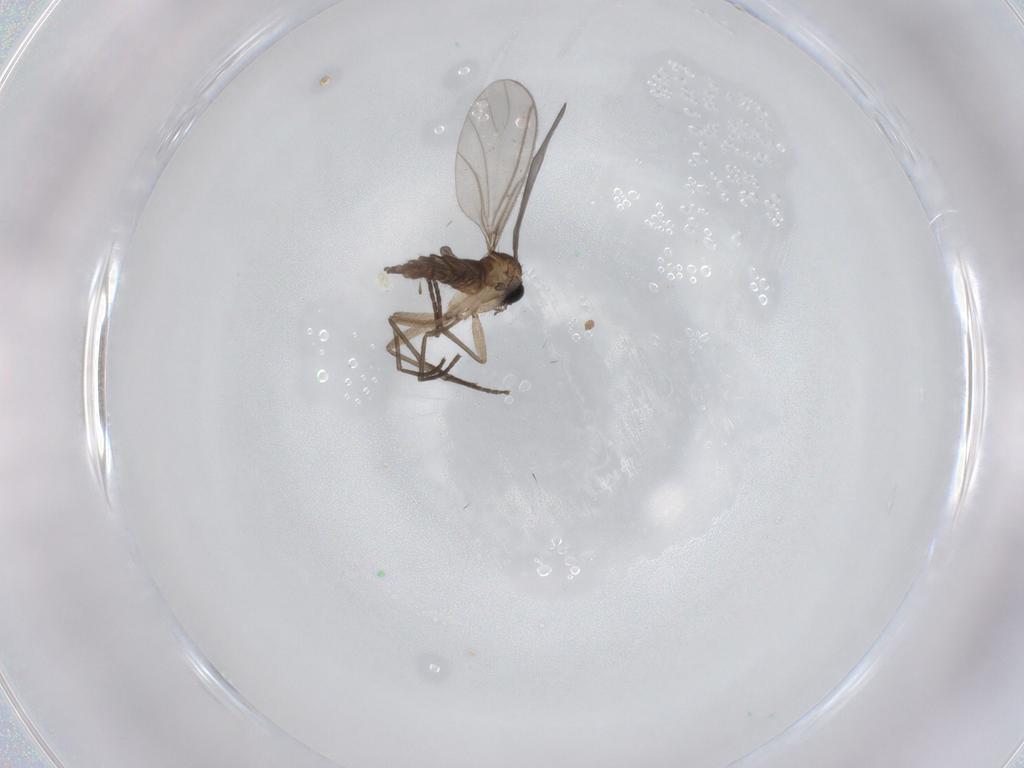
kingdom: Animalia
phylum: Arthropoda
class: Insecta
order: Diptera
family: Sciaridae
